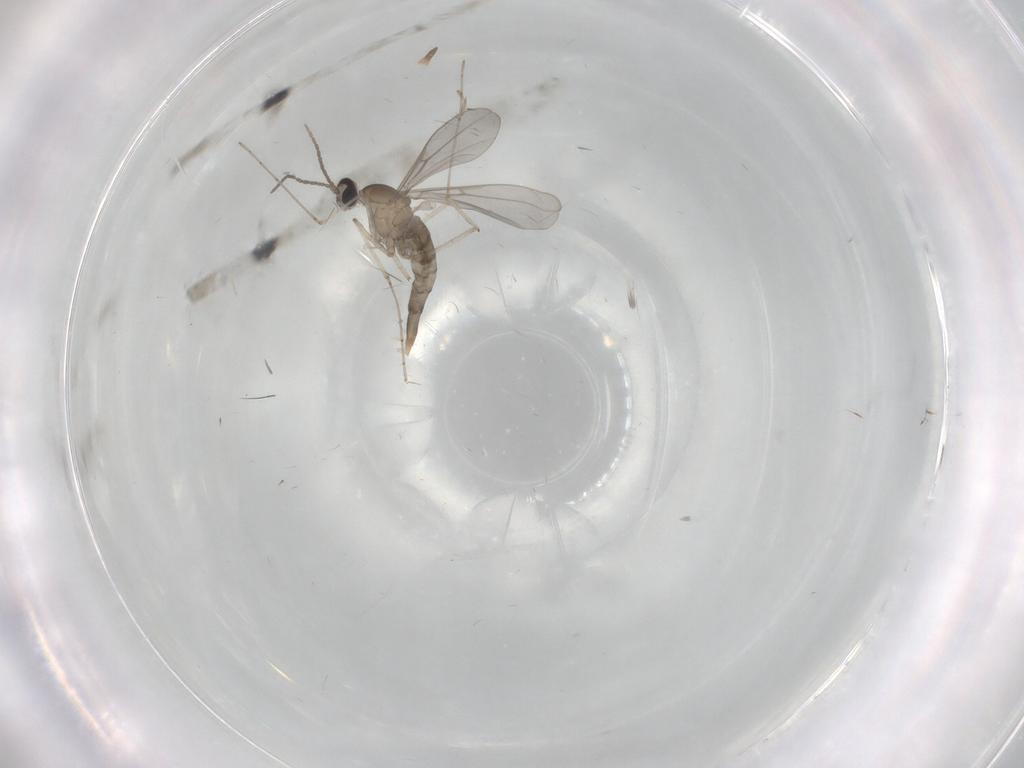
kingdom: Animalia
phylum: Arthropoda
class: Insecta
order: Diptera
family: Cecidomyiidae
